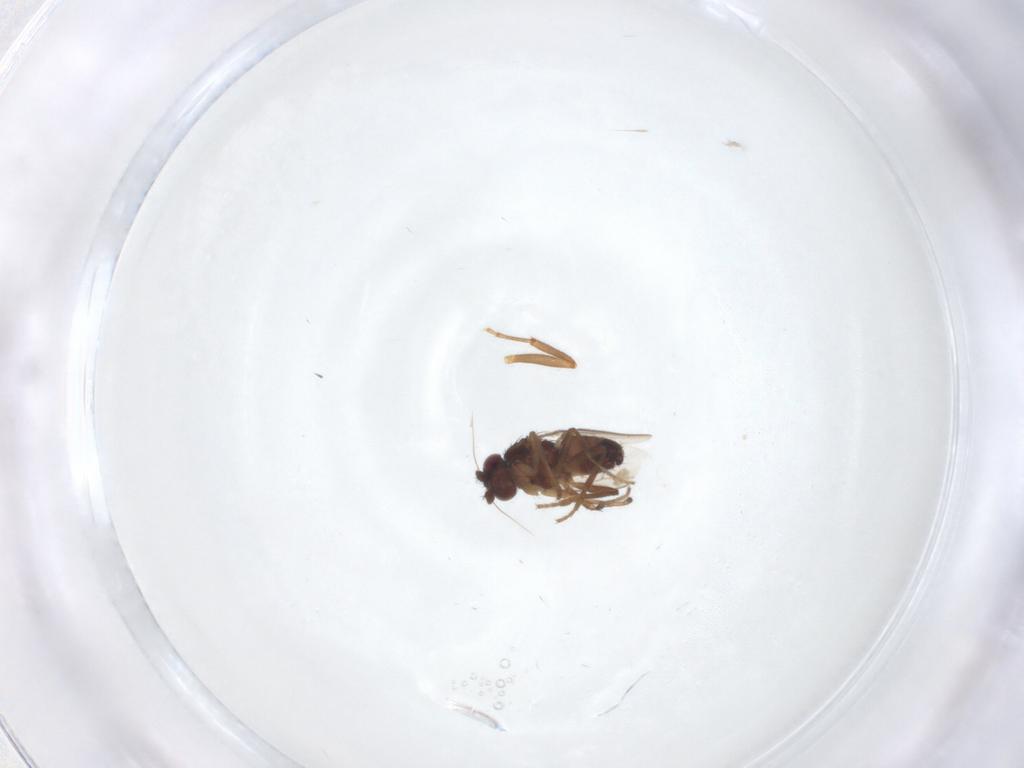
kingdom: Animalia
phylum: Arthropoda
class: Insecta
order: Diptera
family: Sphaeroceridae
